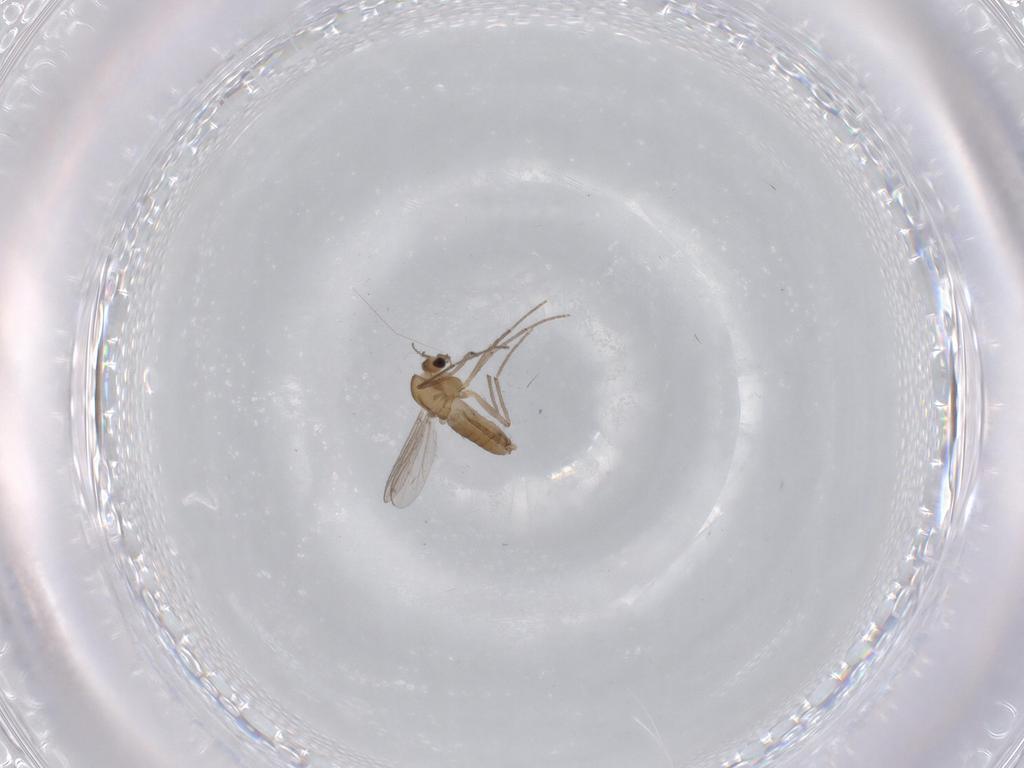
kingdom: Animalia
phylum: Arthropoda
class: Insecta
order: Diptera
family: Chironomidae
